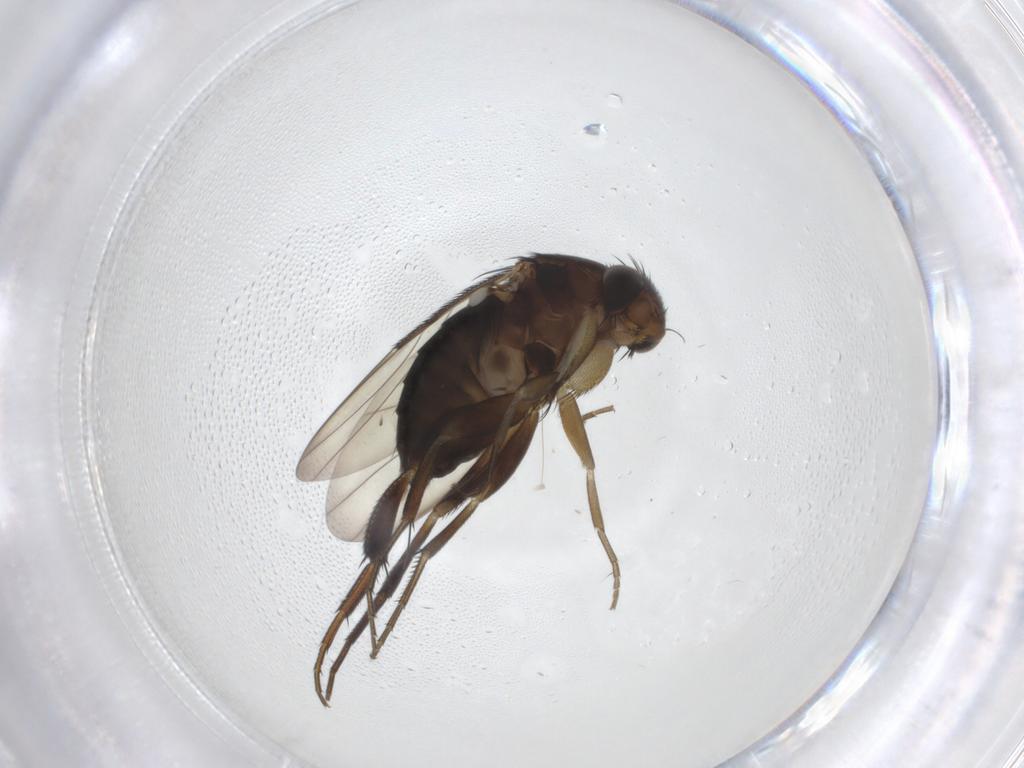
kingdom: Animalia
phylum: Arthropoda
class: Insecta
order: Diptera
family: Phoridae
